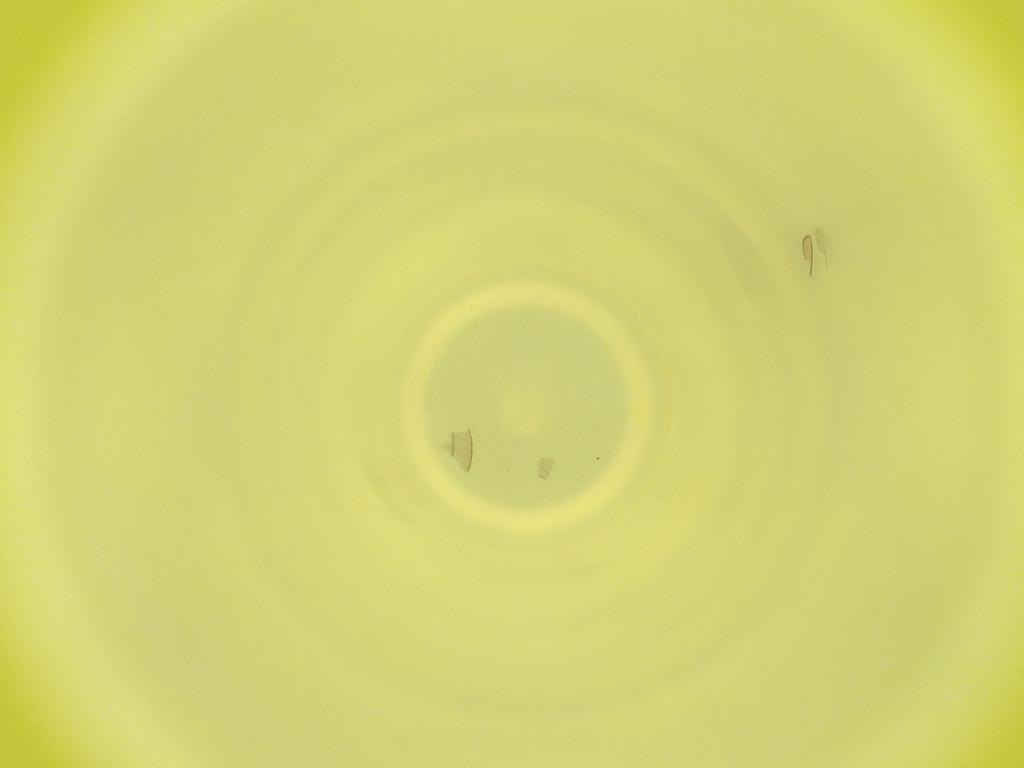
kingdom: Animalia
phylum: Arthropoda
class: Insecta
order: Diptera
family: Cecidomyiidae
